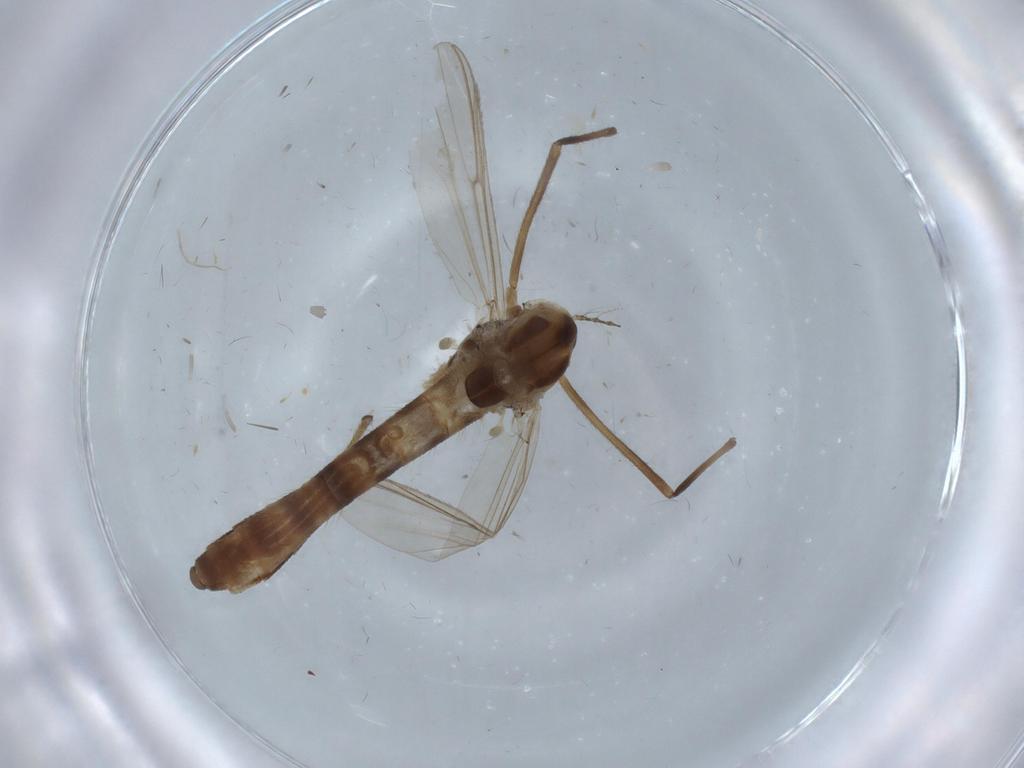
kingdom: Animalia
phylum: Arthropoda
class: Insecta
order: Diptera
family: Chironomidae
